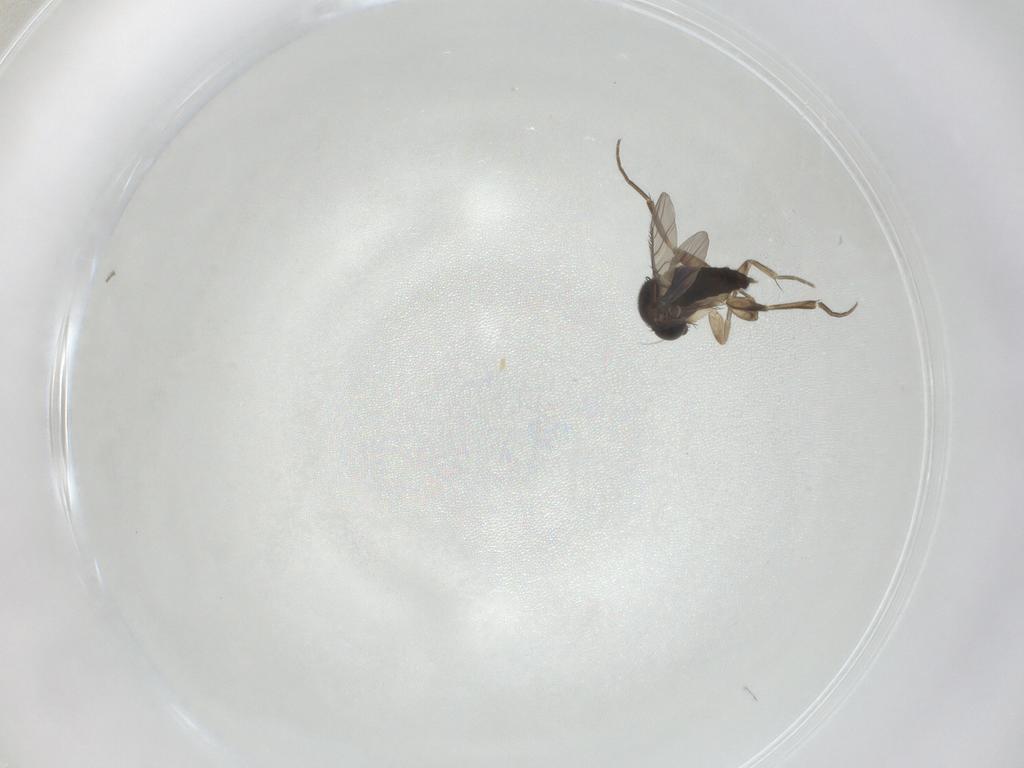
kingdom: Animalia
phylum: Arthropoda
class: Insecta
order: Diptera
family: Phoridae
